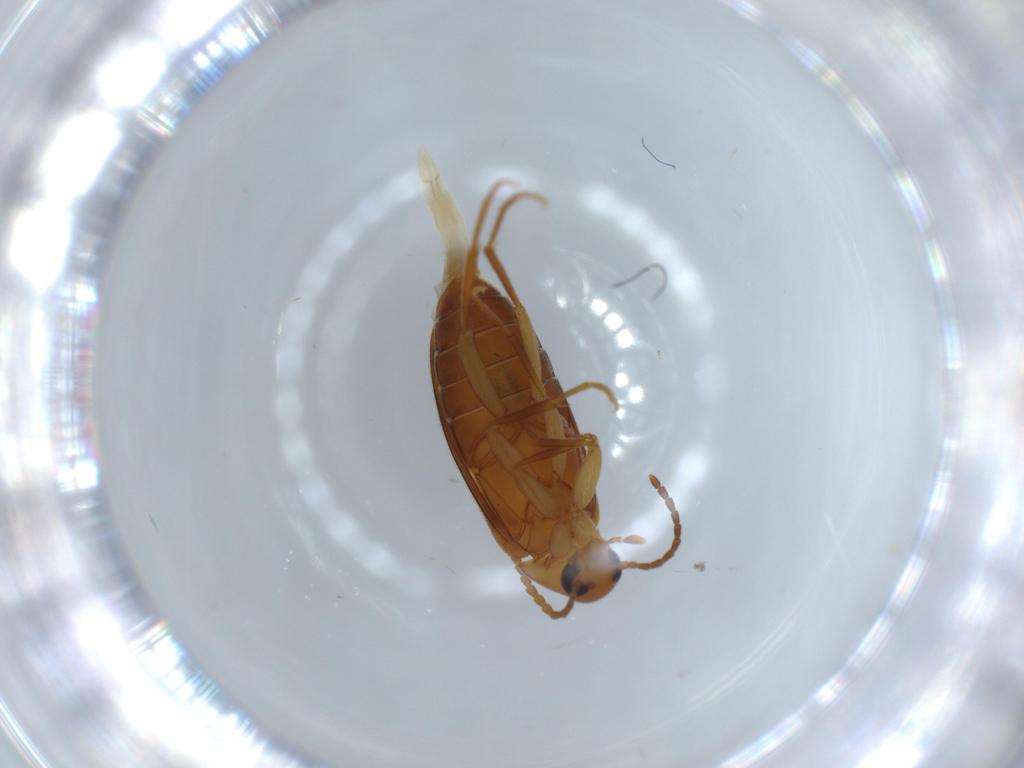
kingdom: Animalia
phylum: Arthropoda
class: Insecta
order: Coleoptera
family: Scraptiidae
